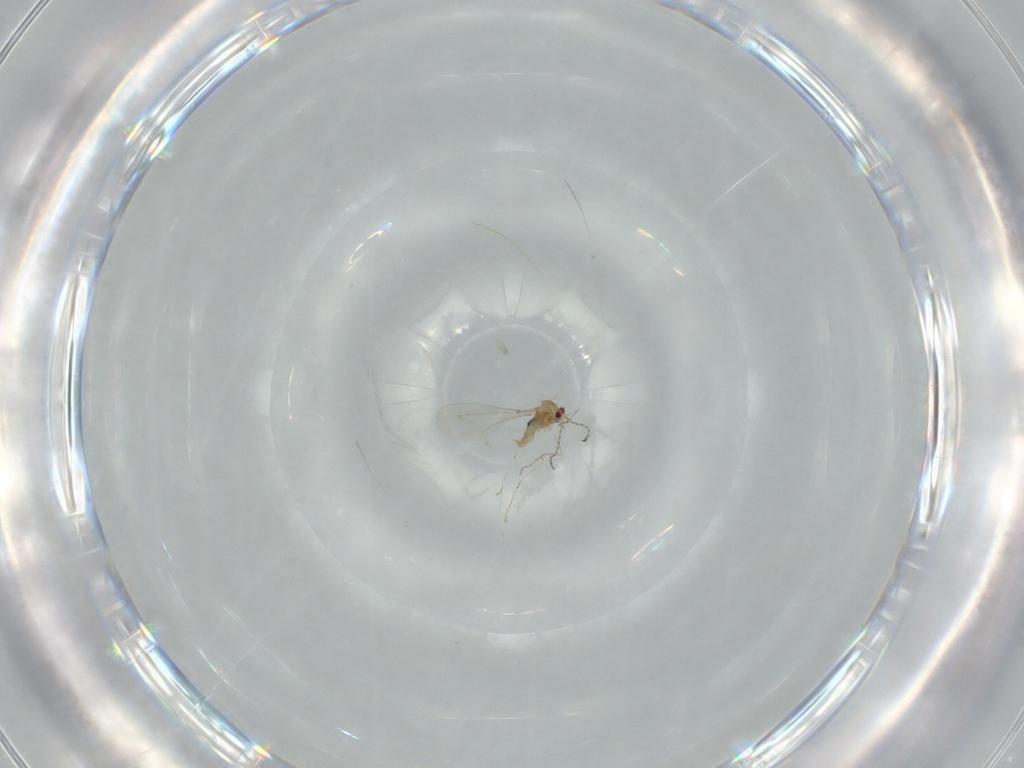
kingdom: Animalia
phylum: Arthropoda
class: Insecta
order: Diptera
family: Cecidomyiidae
